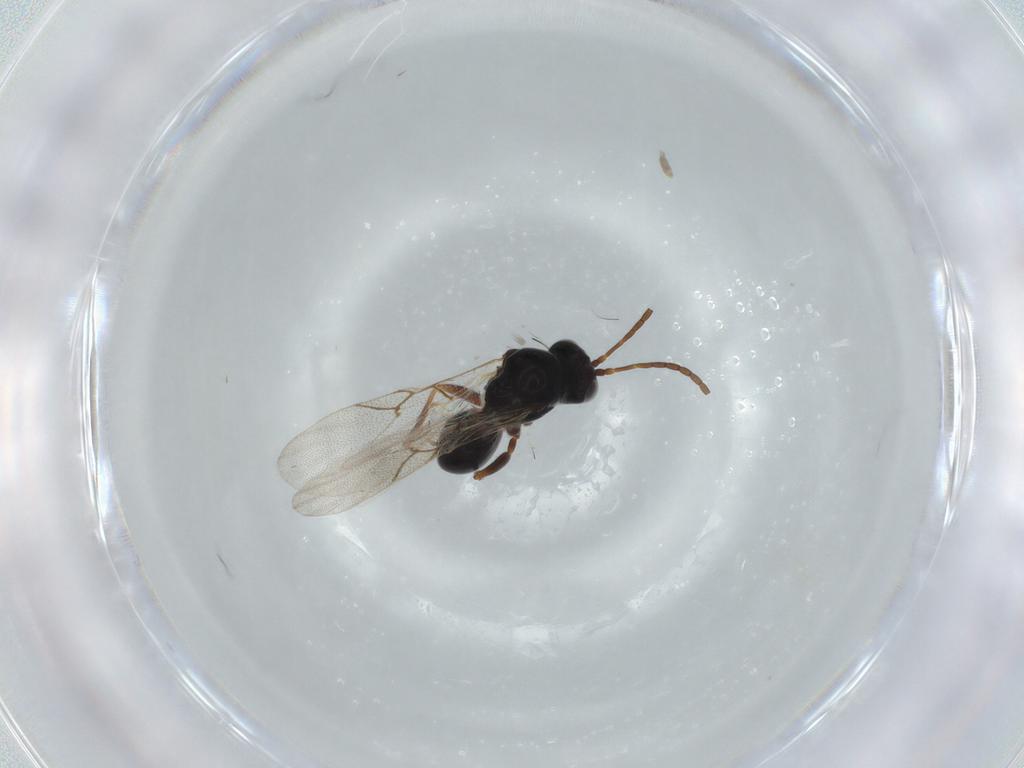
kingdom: Animalia
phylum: Arthropoda
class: Insecta
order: Hymenoptera
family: Figitidae
